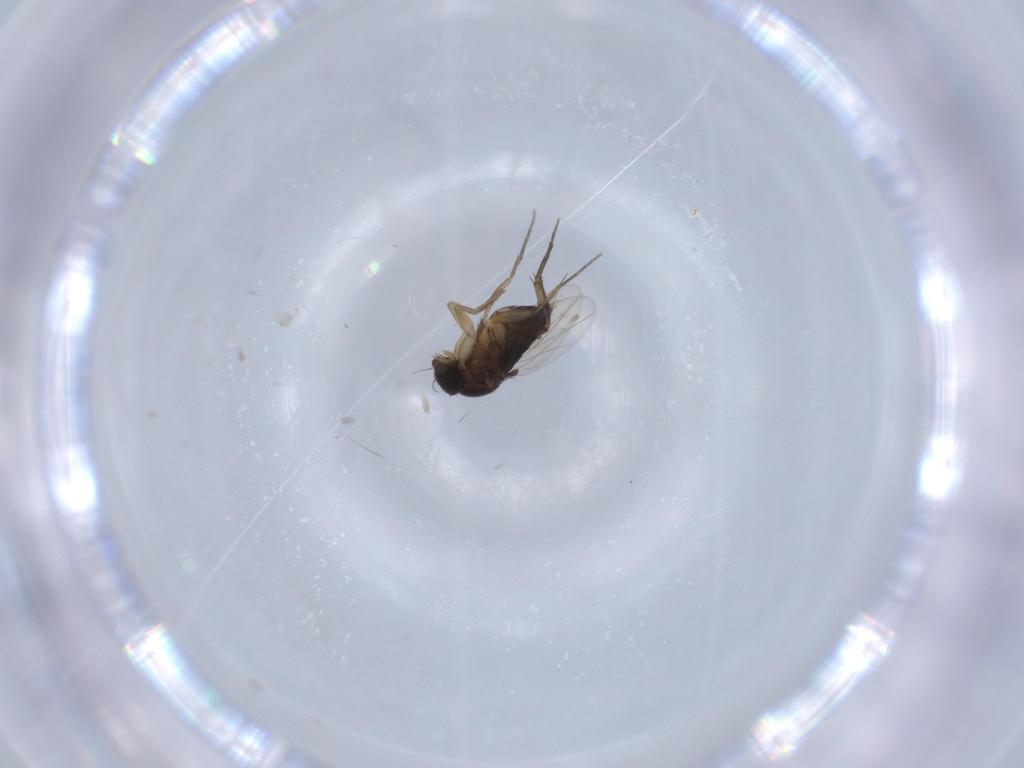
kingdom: Animalia
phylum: Arthropoda
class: Insecta
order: Diptera
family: Phoridae
